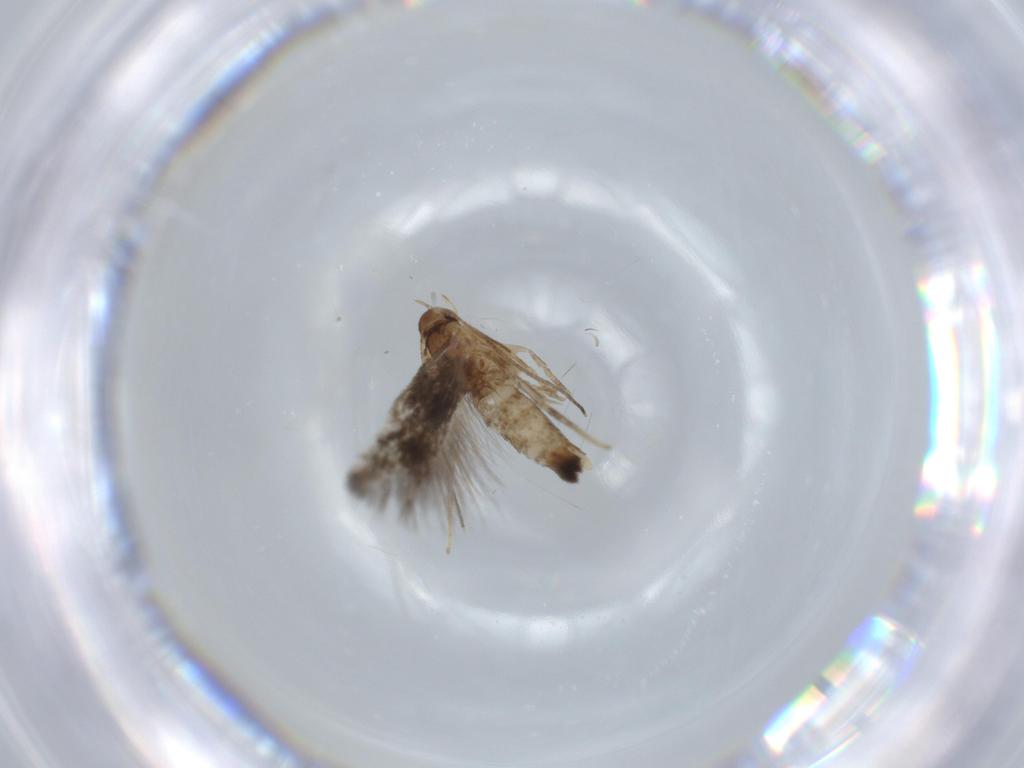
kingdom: Animalia
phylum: Arthropoda
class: Insecta
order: Lepidoptera
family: Cosmopterigidae
